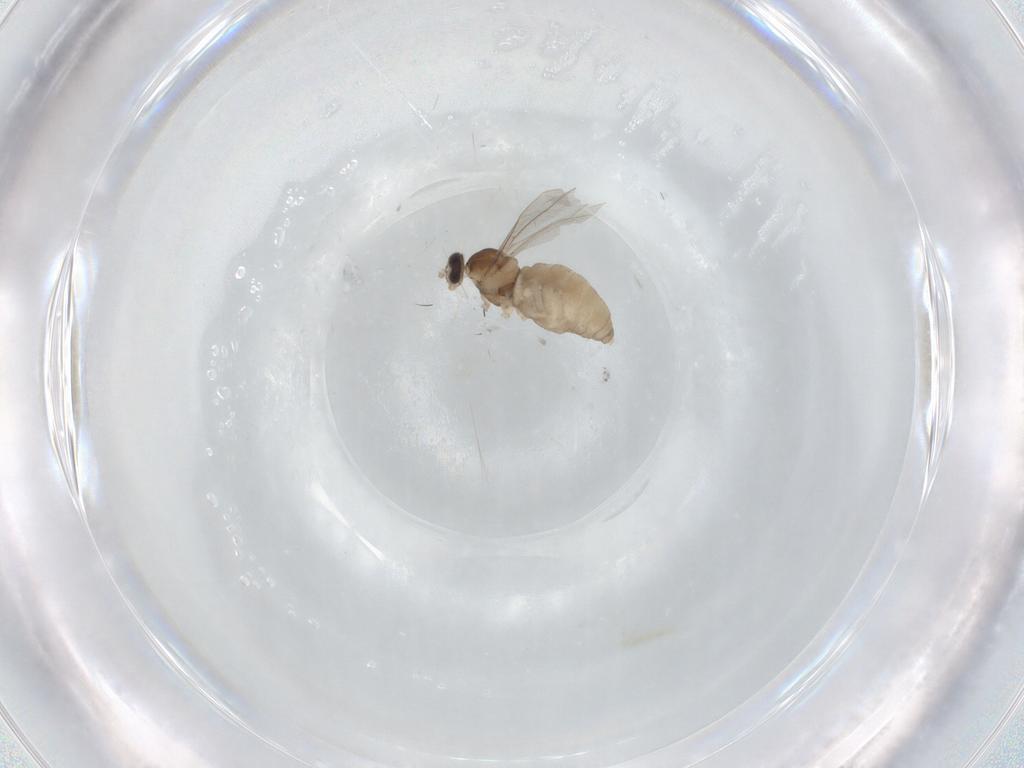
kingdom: Animalia
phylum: Arthropoda
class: Insecta
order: Diptera
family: Cecidomyiidae
